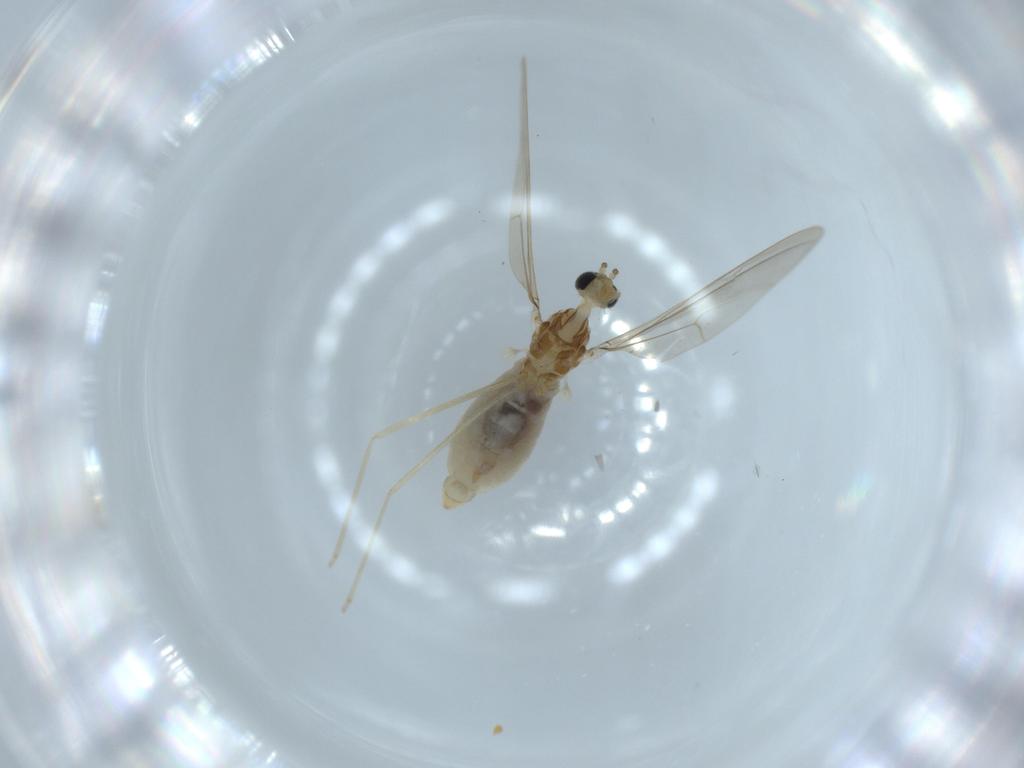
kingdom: Animalia
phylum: Arthropoda
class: Insecta
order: Diptera
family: Cecidomyiidae
